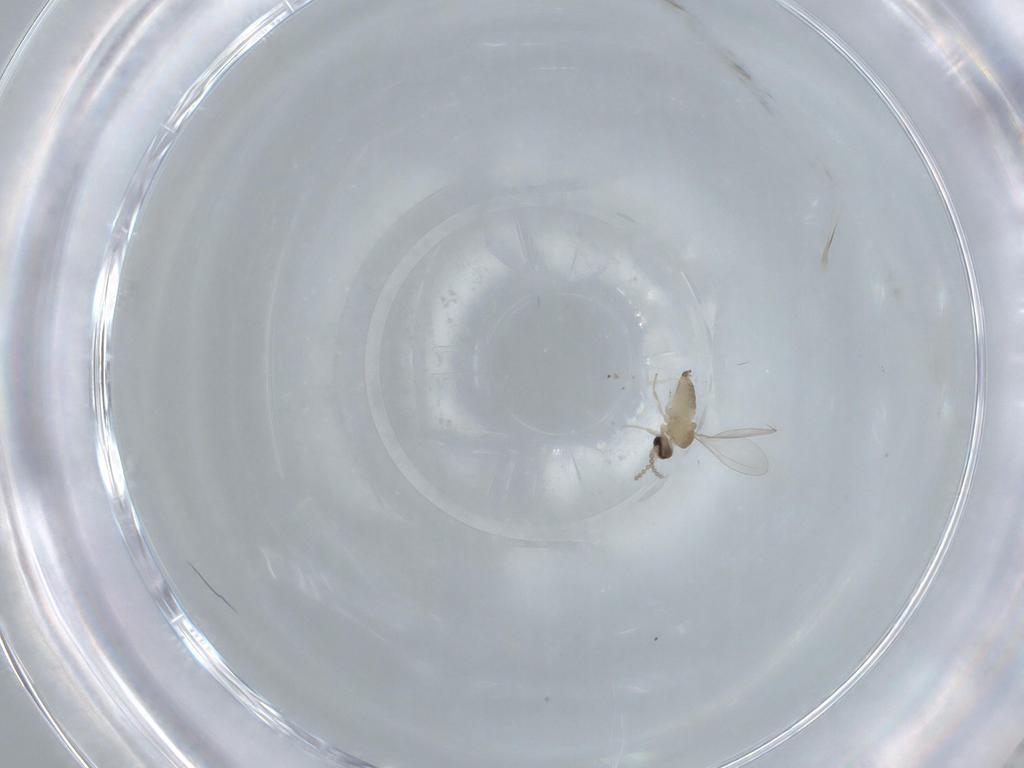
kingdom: Animalia
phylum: Arthropoda
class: Insecta
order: Diptera
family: Cecidomyiidae
